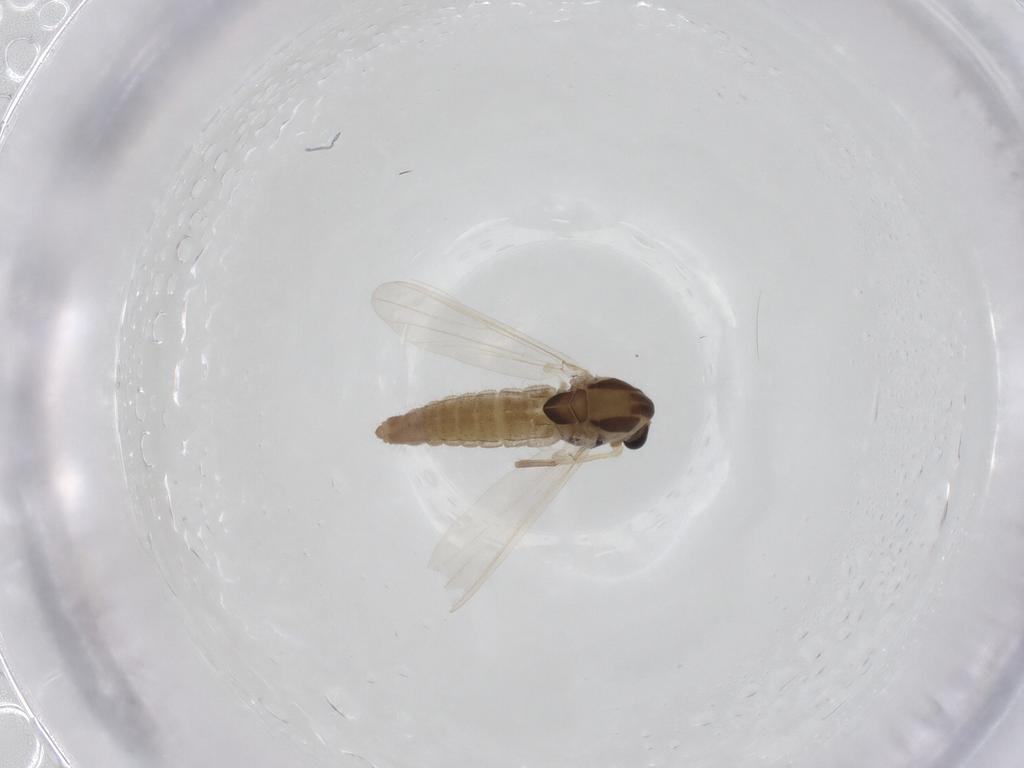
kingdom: Animalia
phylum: Arthropoda
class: Insecta
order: Diptera
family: Chironomidae
